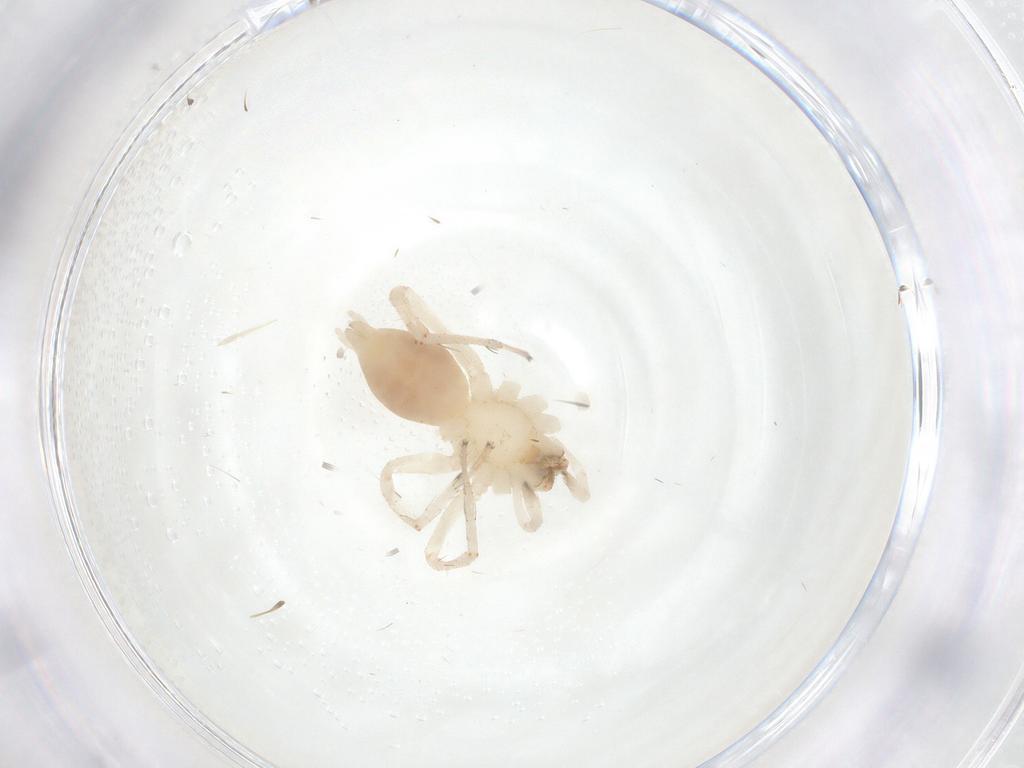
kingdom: Animalia
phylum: Arthropoda
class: Arachnida
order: Araneae
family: Anyphaenidae
